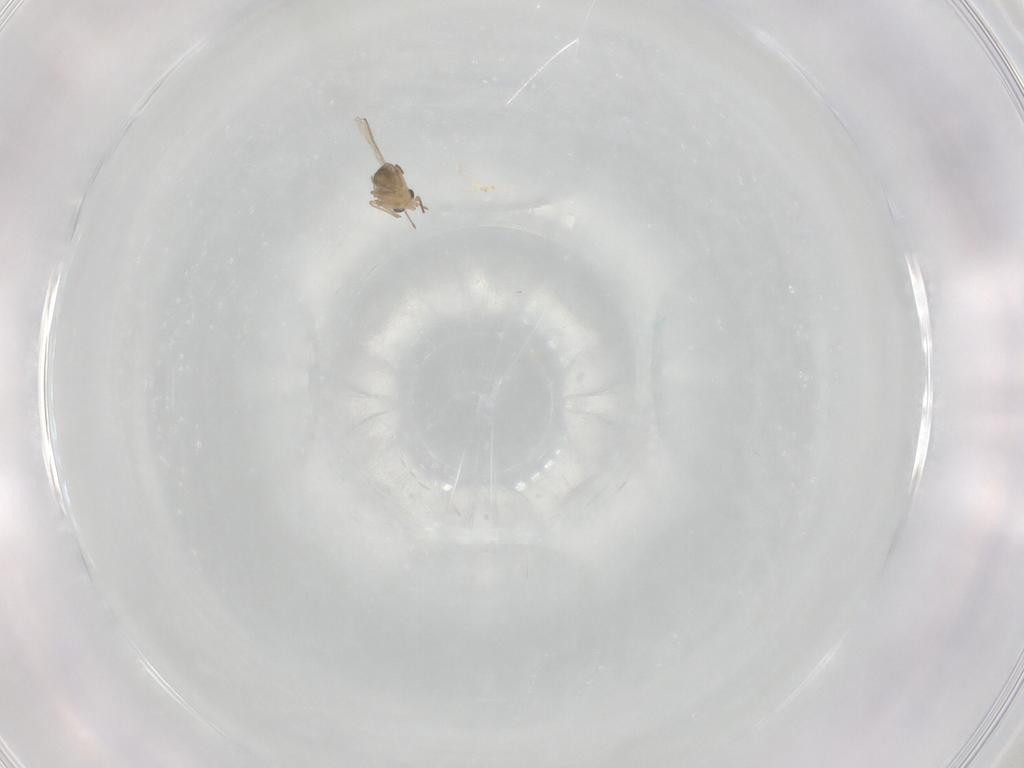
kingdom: Animalia
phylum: Arthropoda
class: Insecta
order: Diptera
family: Chironomidae
